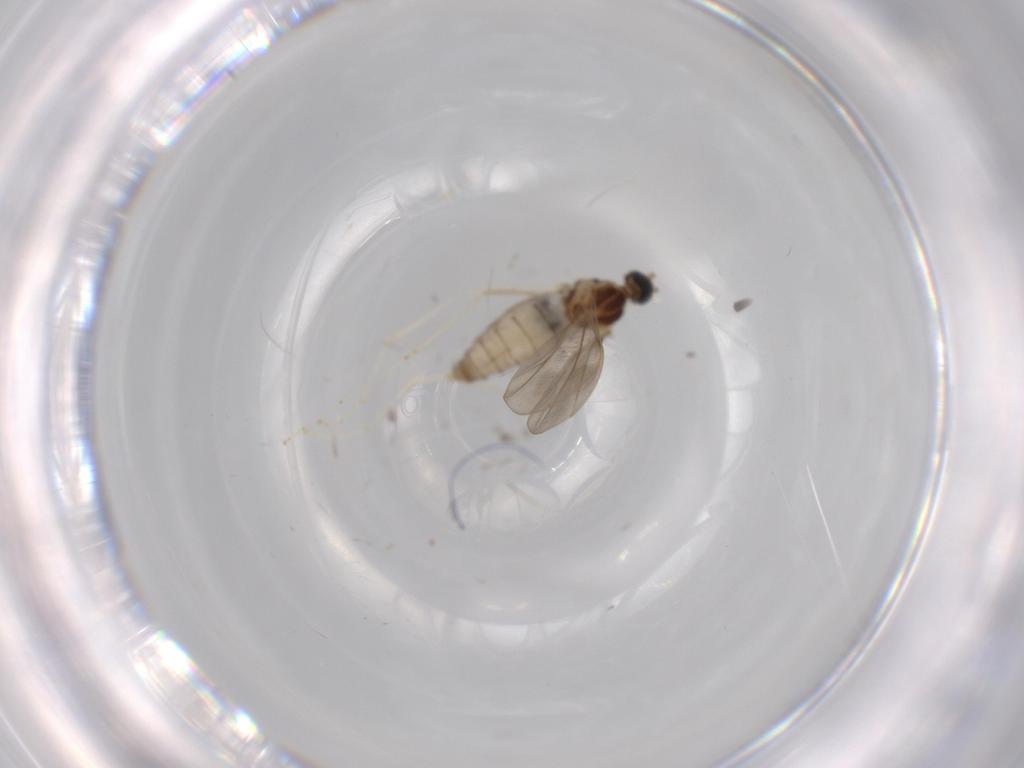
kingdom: Animalia
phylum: Arthropoda
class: Insecta
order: Diptera
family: Cecidomyiidae
